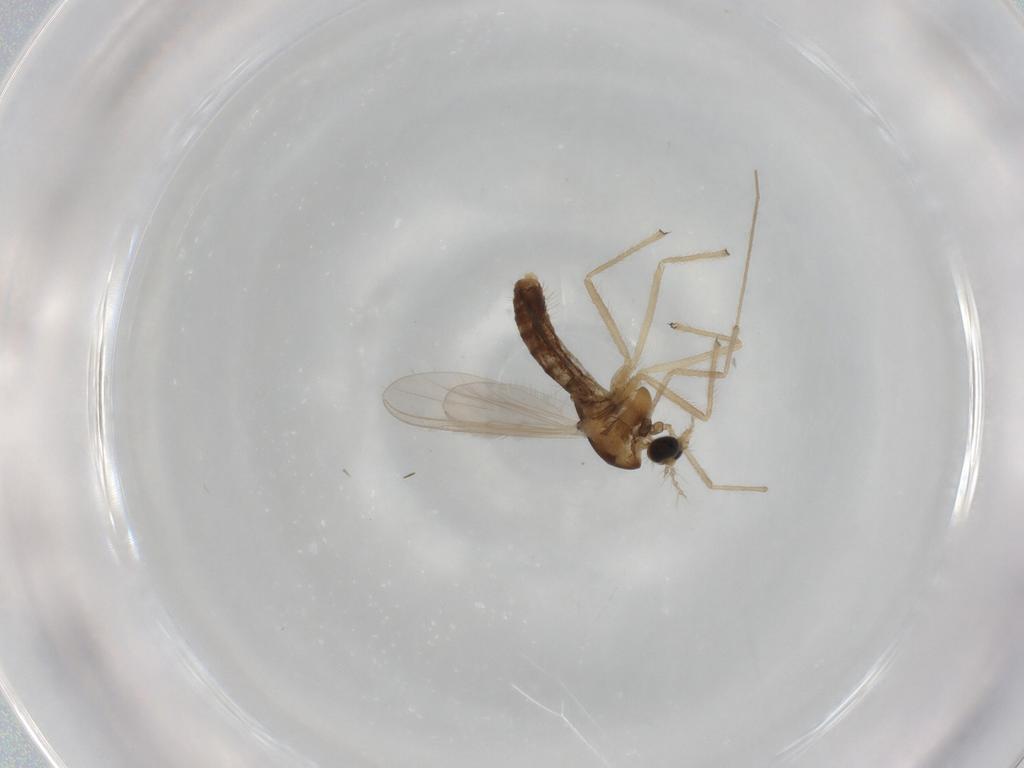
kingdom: Animalia
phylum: Arthropoda
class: Insecta
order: Diptera
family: Chironomidae
